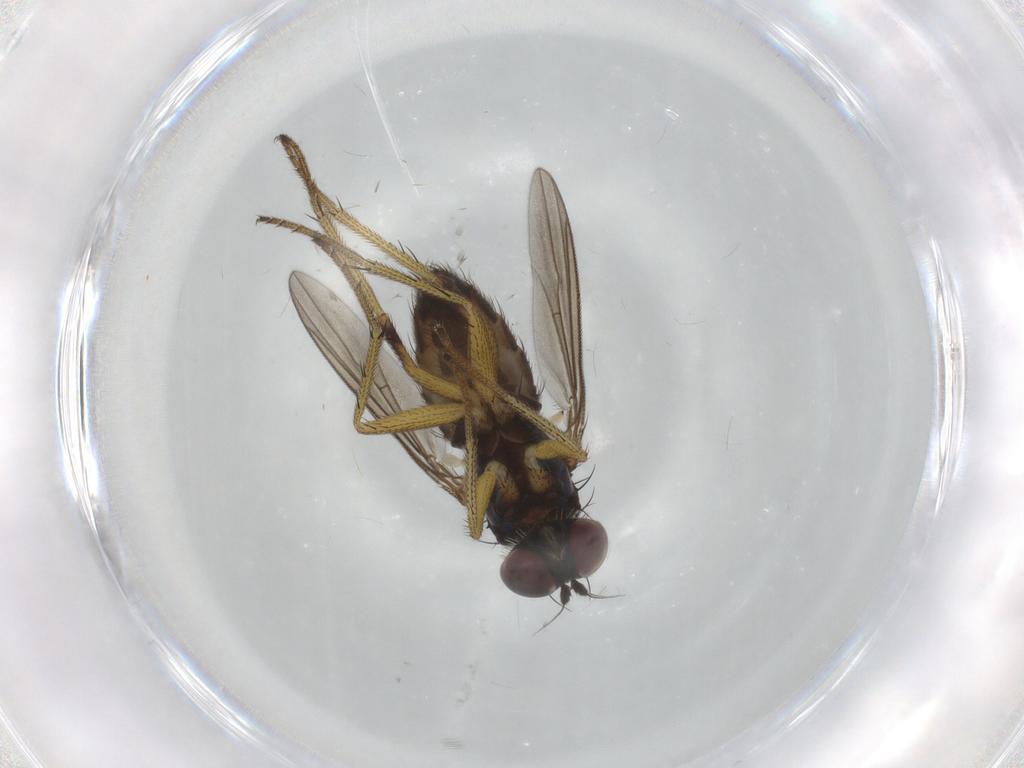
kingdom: Animalia
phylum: Arthropoda
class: Insecta
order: Diptera
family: Dolichopodidae
